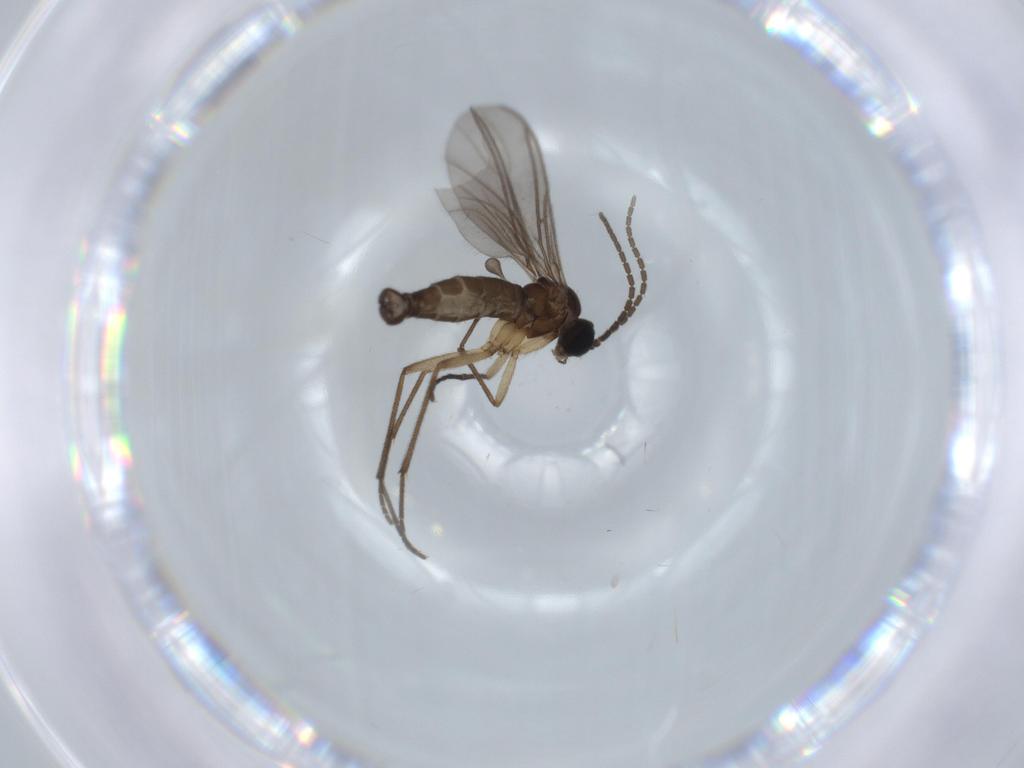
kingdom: Animalia
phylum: Arthropoda
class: Insecta
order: Diptera
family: Sciaridae
